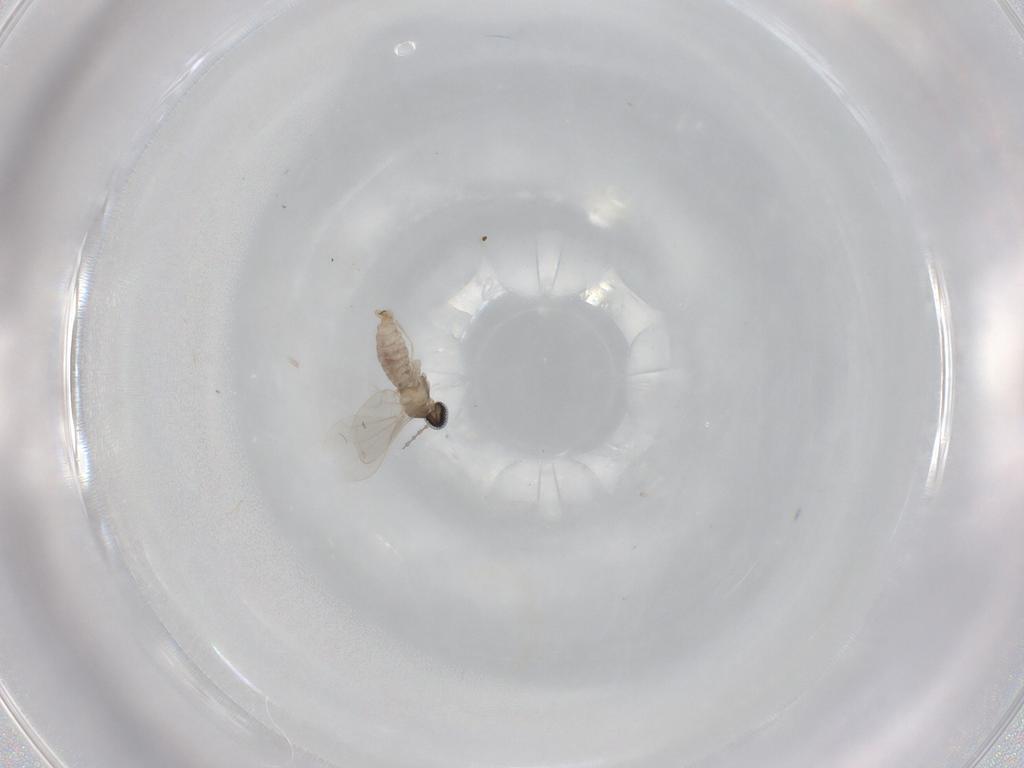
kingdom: Animalia
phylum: Arthropoda
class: Insecta
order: Diptera
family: Cecidomyiidae
